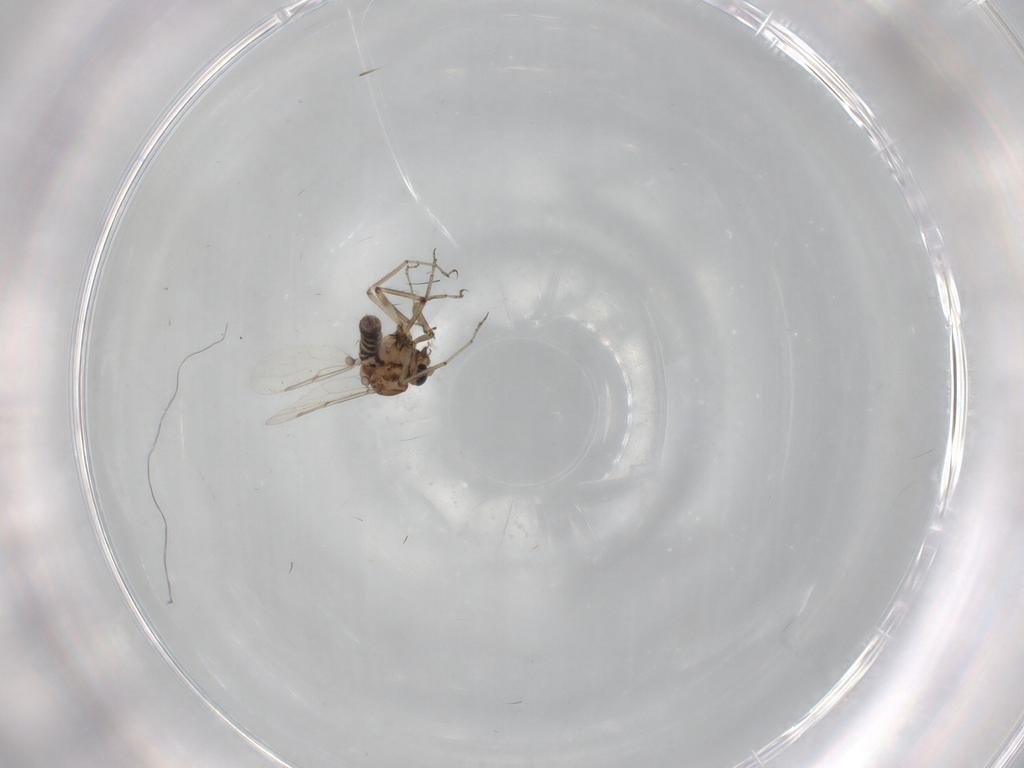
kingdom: Animalia
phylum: Arthropoda
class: Insecta
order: Diptera
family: Ceratopogonidae
